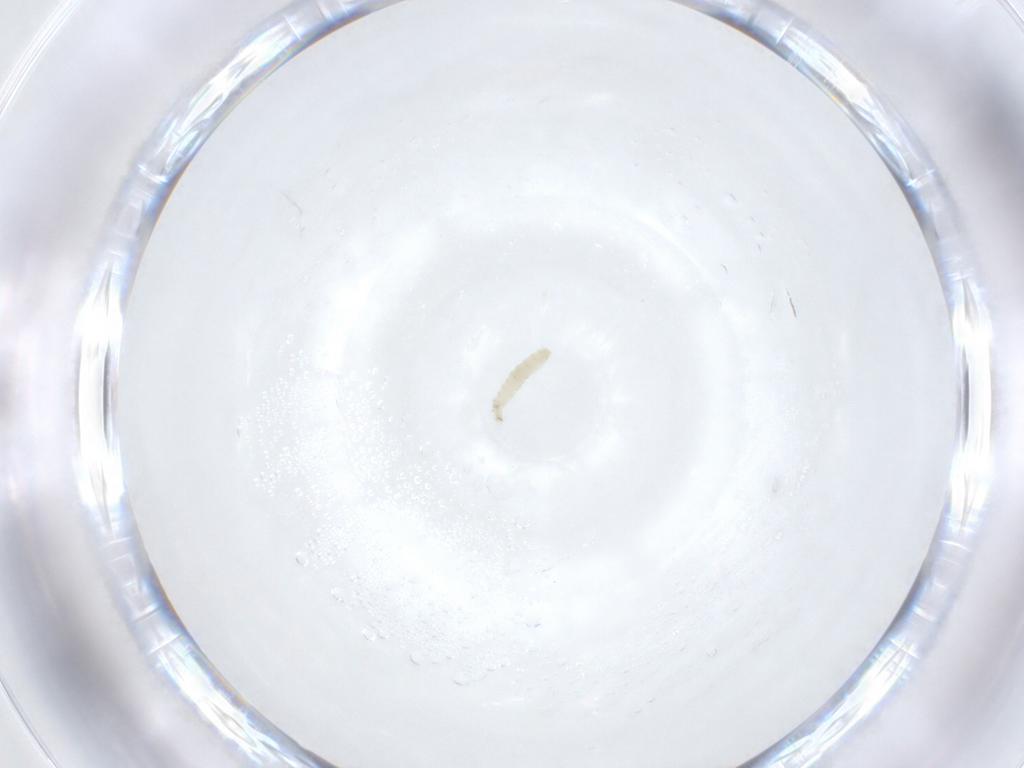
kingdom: Animalia
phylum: Arthropoda
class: Insecta
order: Diptera
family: Sarcophagidae
